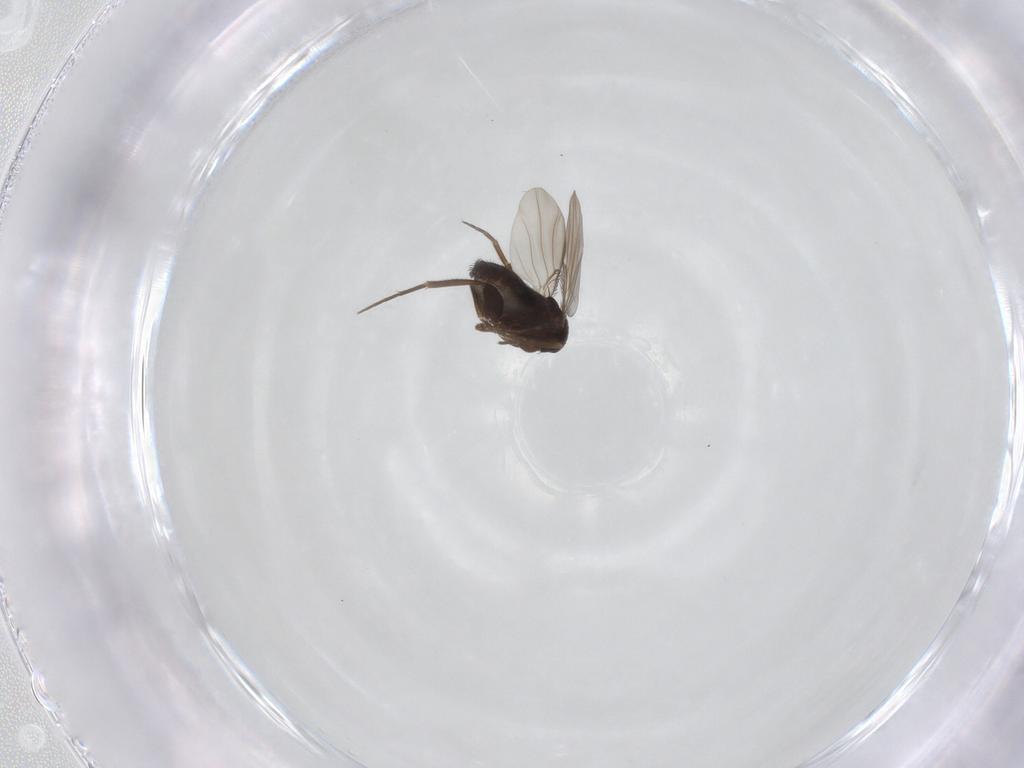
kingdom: Animalia
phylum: Arthropoda
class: Insecta
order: Diptera
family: Phoridae
